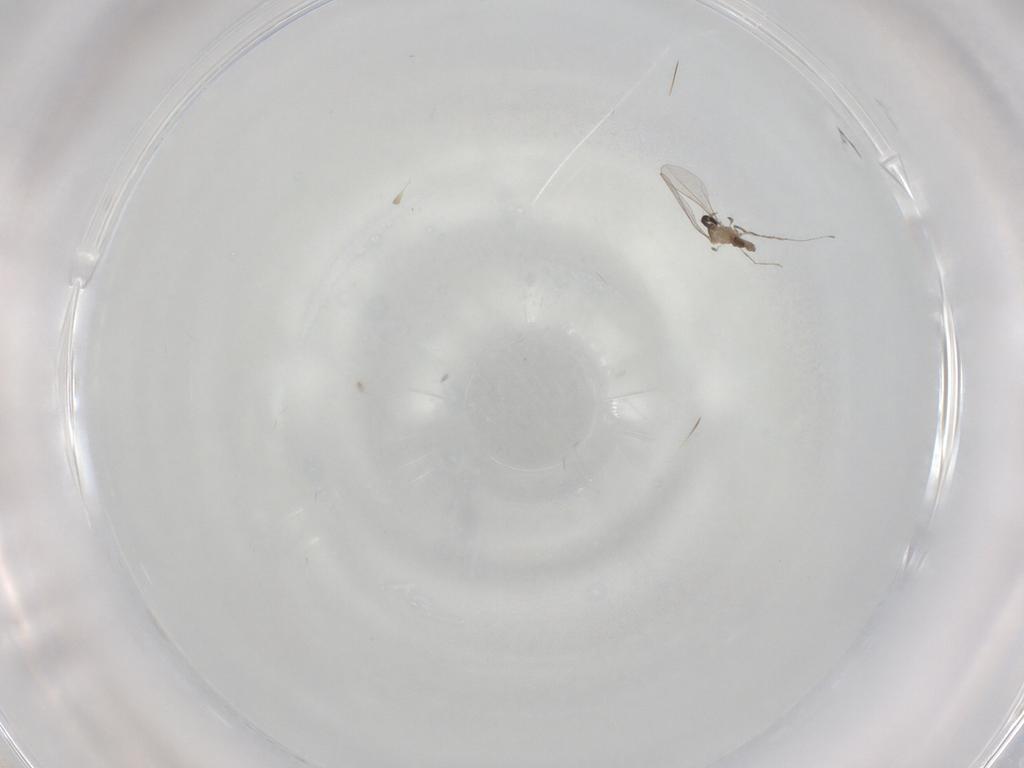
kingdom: Animalia
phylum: Arthropoda
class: Insecta
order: Diptera
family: Cecidomyiidae
